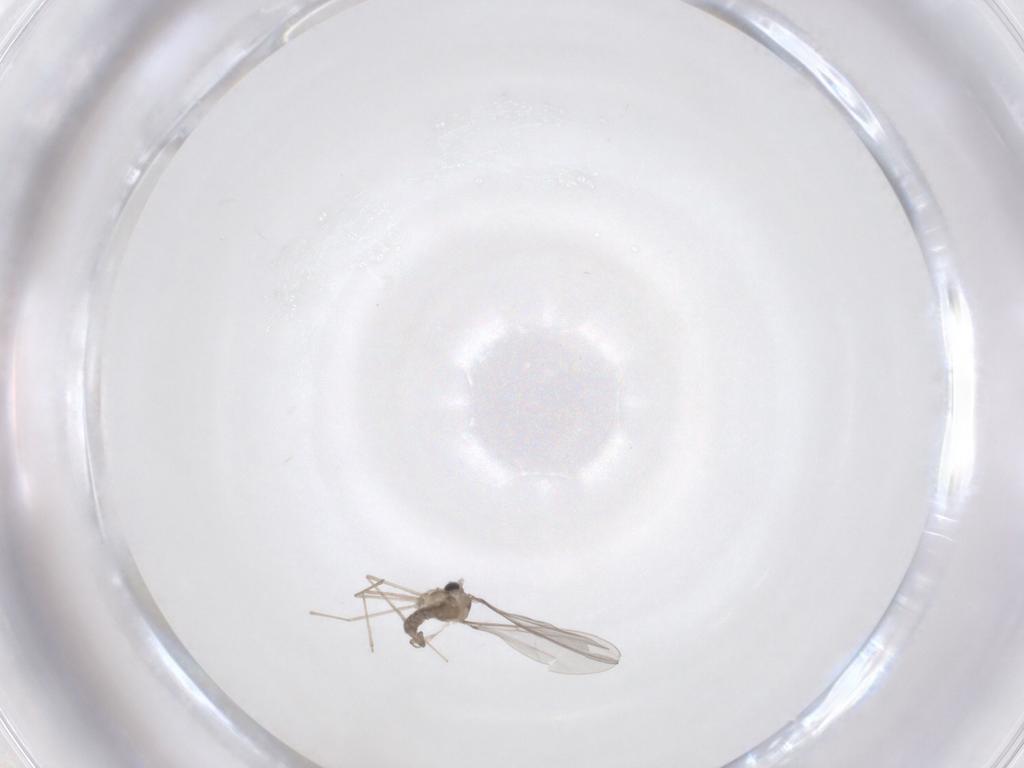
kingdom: Animalia
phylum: Arthropoda
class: Insecta
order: Diptera
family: Cecidomyiidae
